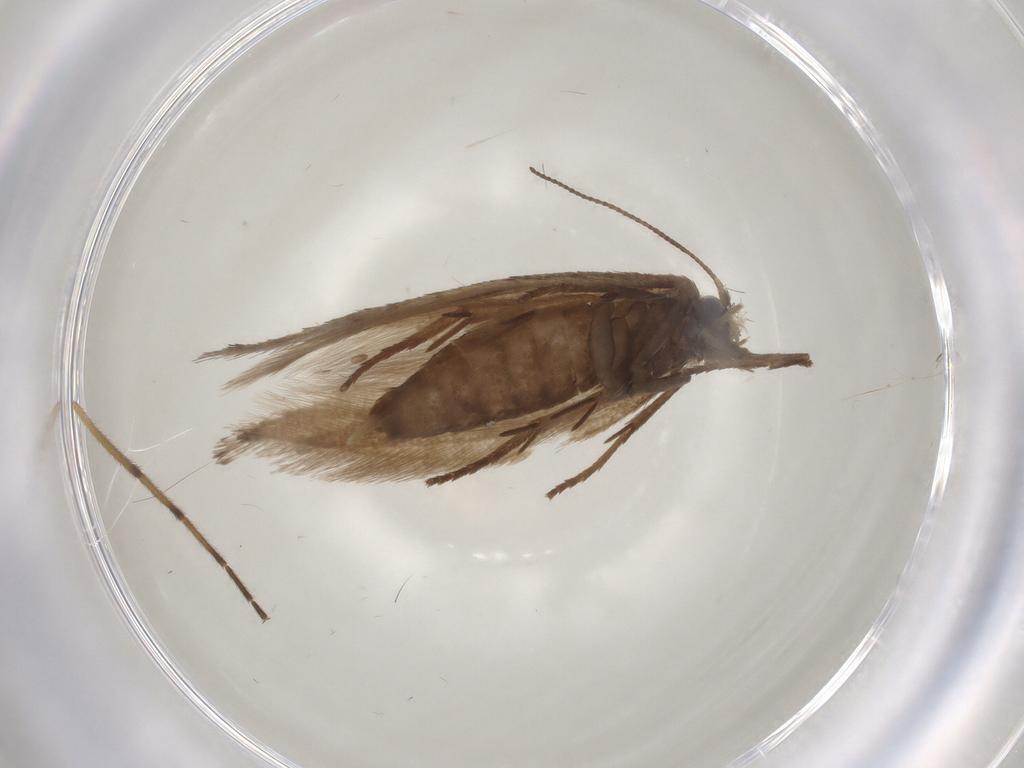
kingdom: Animalia
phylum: Arthropoda
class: Insecta
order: Lepidoptera
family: Nepticulidae
